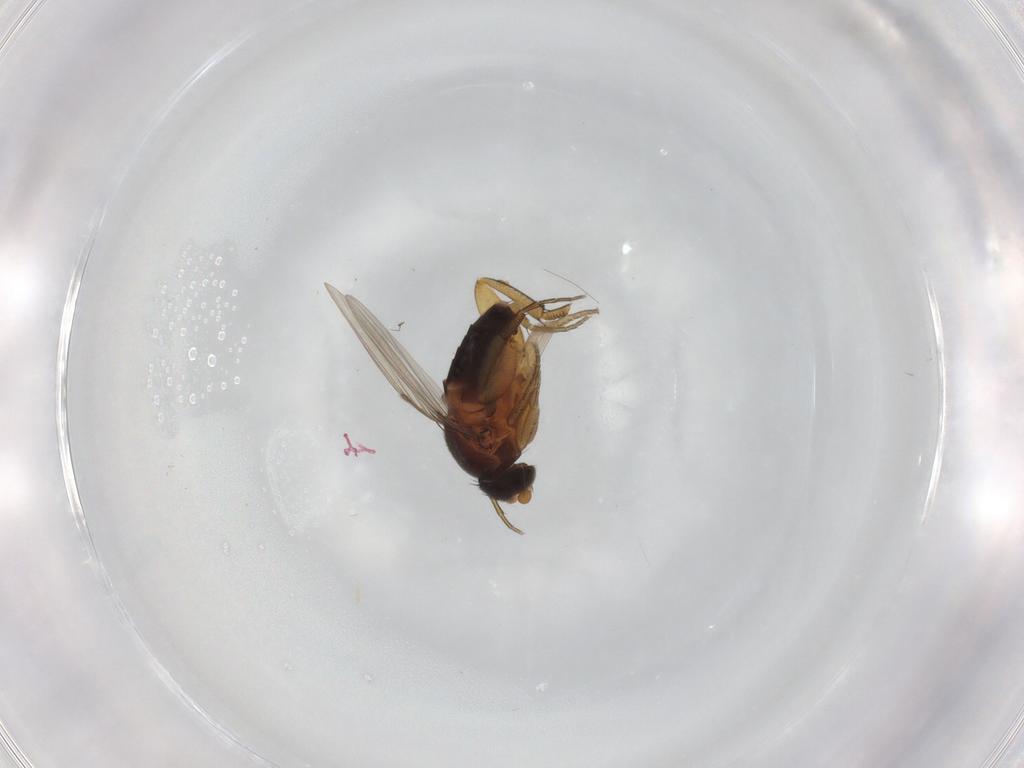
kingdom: Animalia
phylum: Arthropoda
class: Insecta
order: Diptera
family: Phoridae
